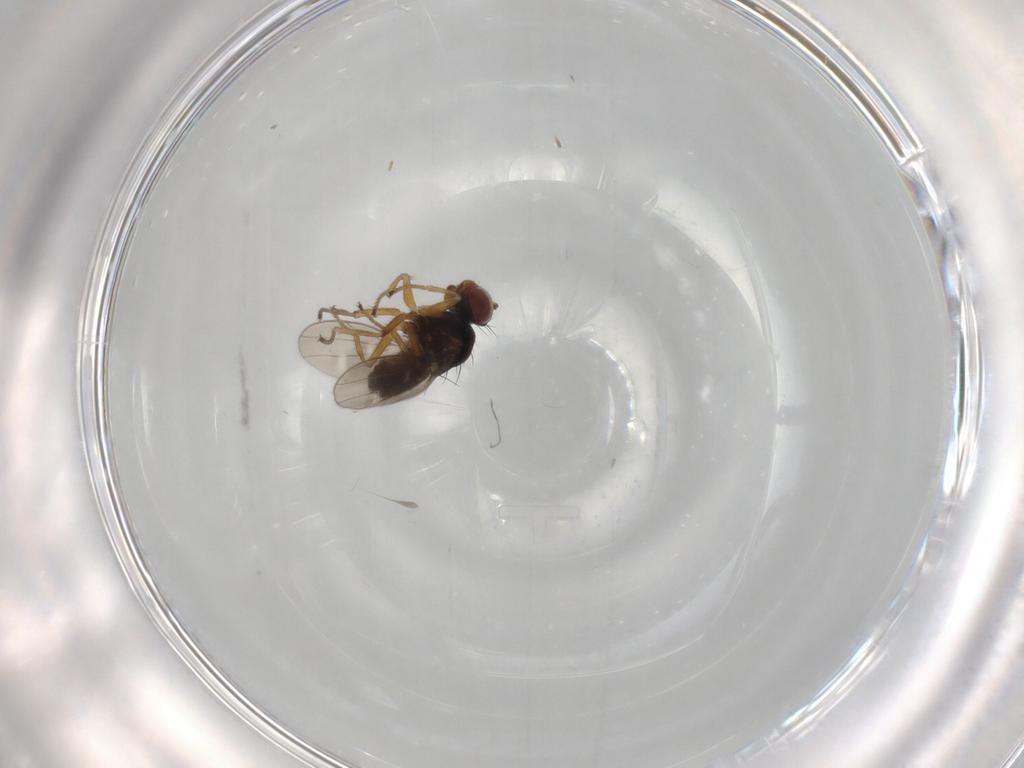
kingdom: Animalia
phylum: Arthropoda
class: Insecta
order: Diptera
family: Ephydridae
